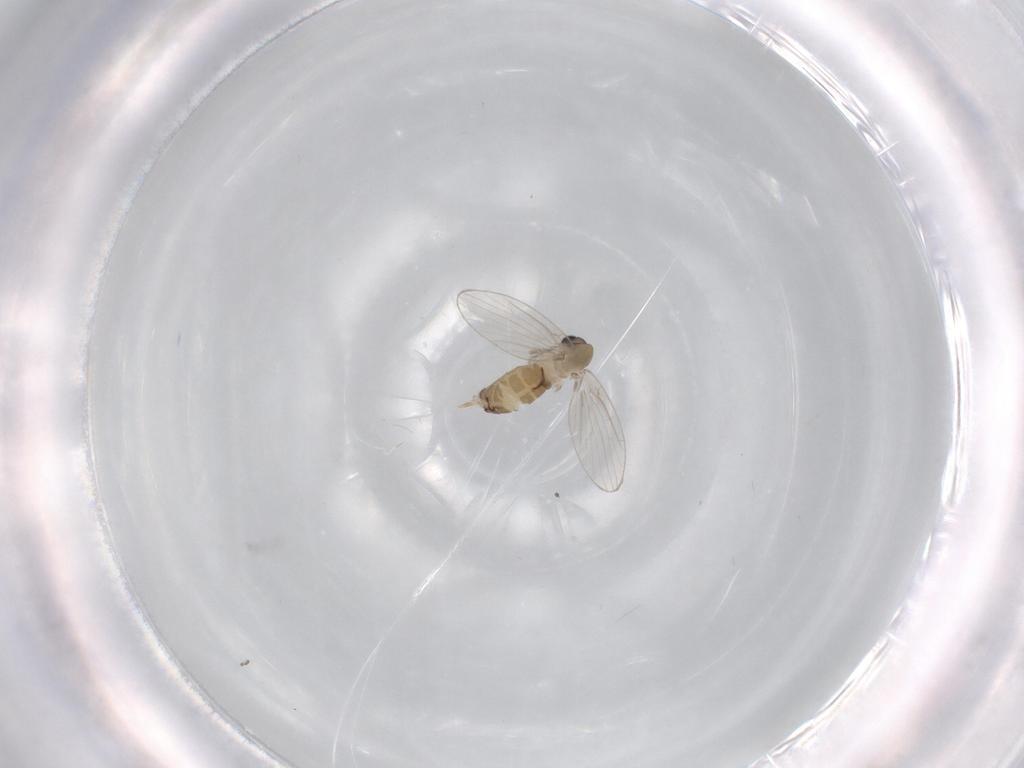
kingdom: Animalia
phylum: Arthropoda
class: Insecta
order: Diptera
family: Psychodidae
